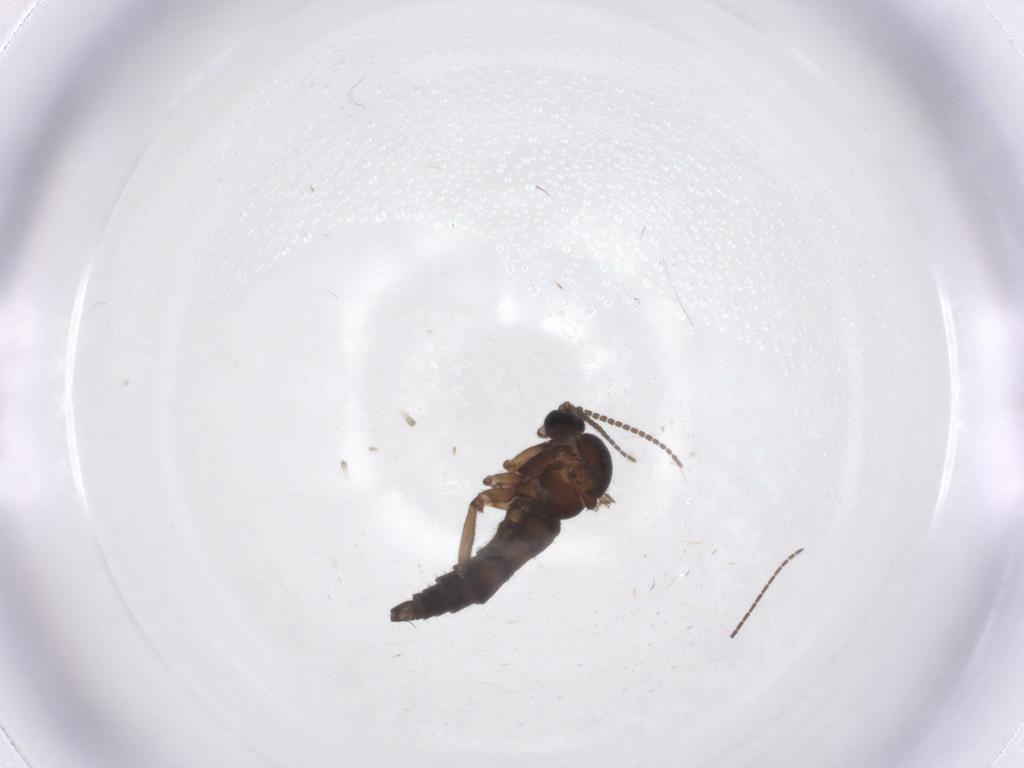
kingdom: Animalia
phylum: Arthropoda
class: Insecta
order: Diptera
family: Sciaridae
